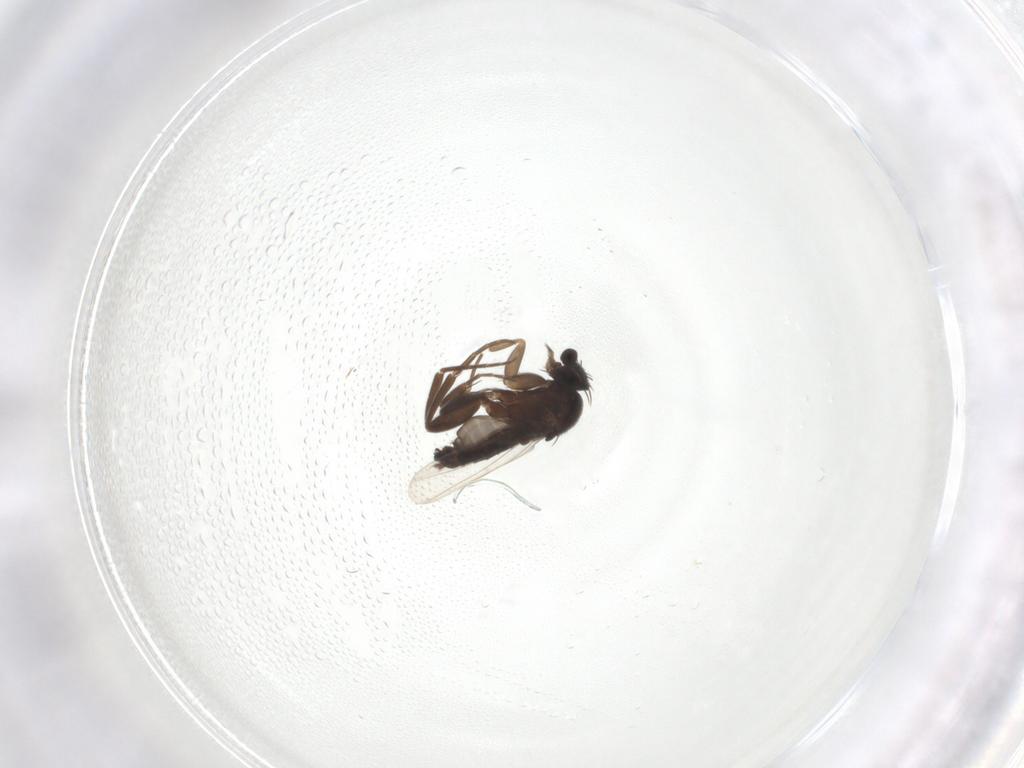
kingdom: Animalia
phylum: Arthropoda
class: Insecta
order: Diptera
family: Phoridae
